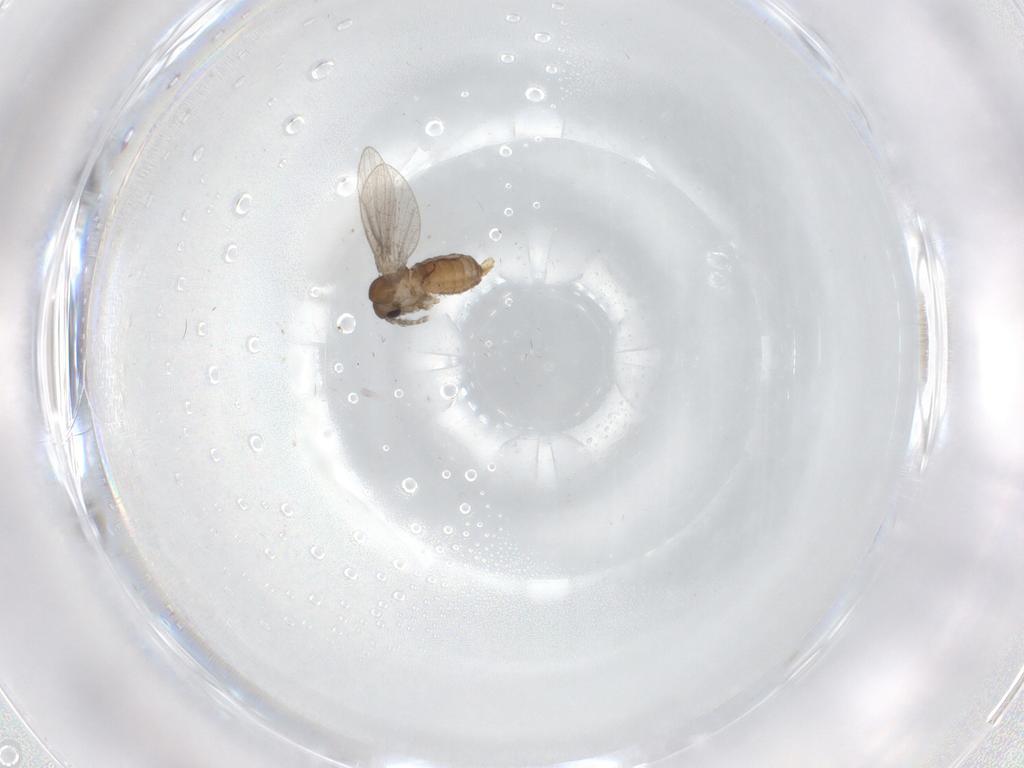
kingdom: Animalia
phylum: Arthropoda
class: Insecta
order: Diptera
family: Psychodidae
